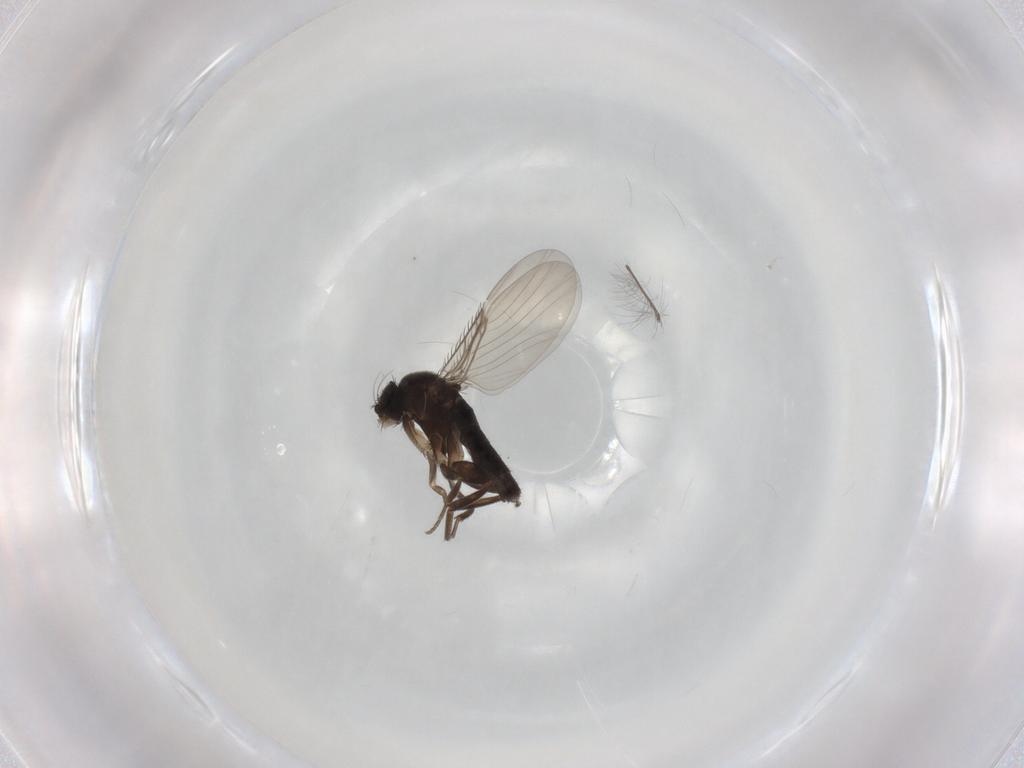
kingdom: Animalia
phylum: Arthropoda
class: Insecta
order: Diptera
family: Phoridae
